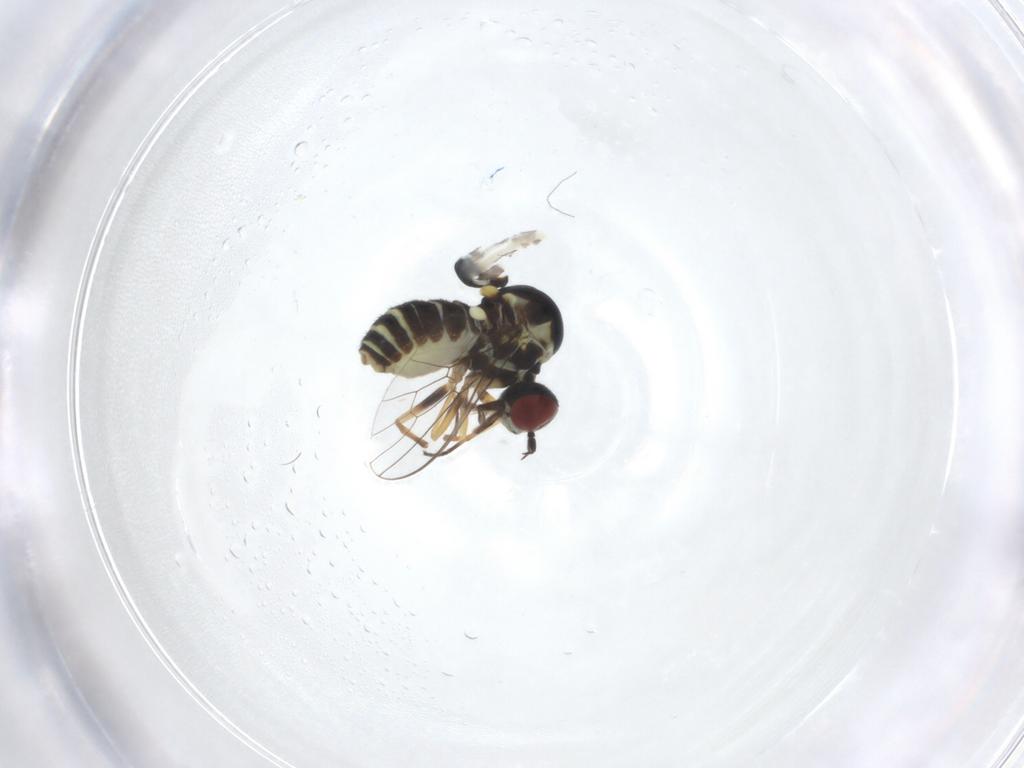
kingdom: Animalia
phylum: Arthropoda
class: Insecta
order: Diptera
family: Bombyliidae
